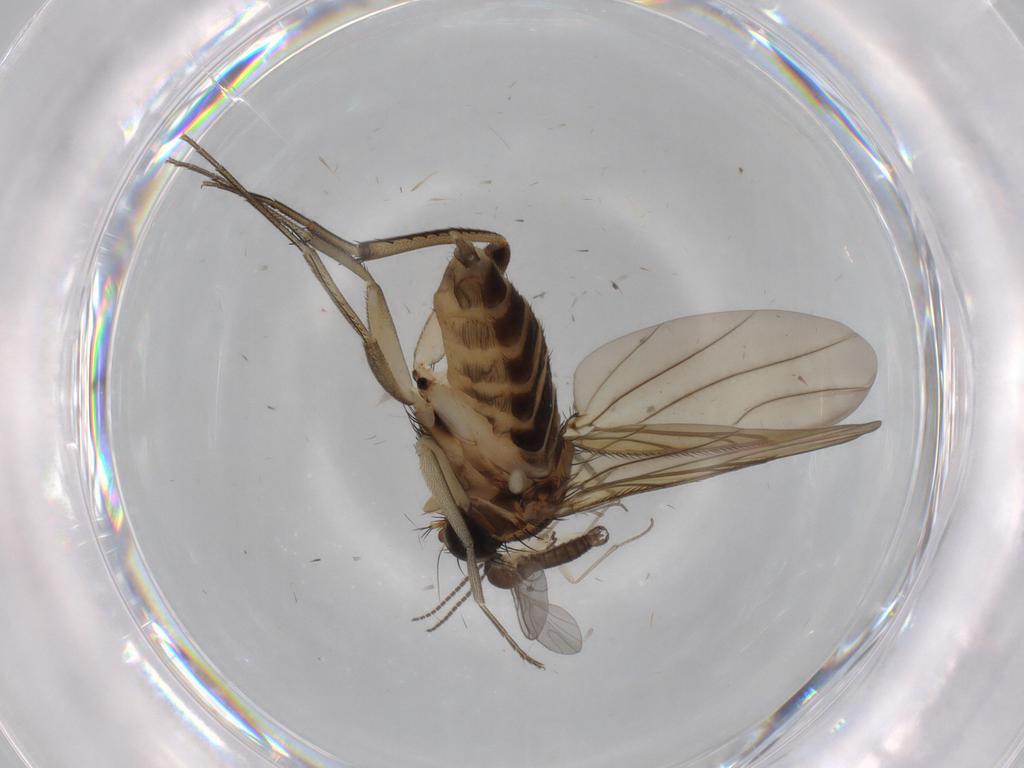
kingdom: Animalia
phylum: Arthropoda
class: Insecta
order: Diptera
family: Phoridae
